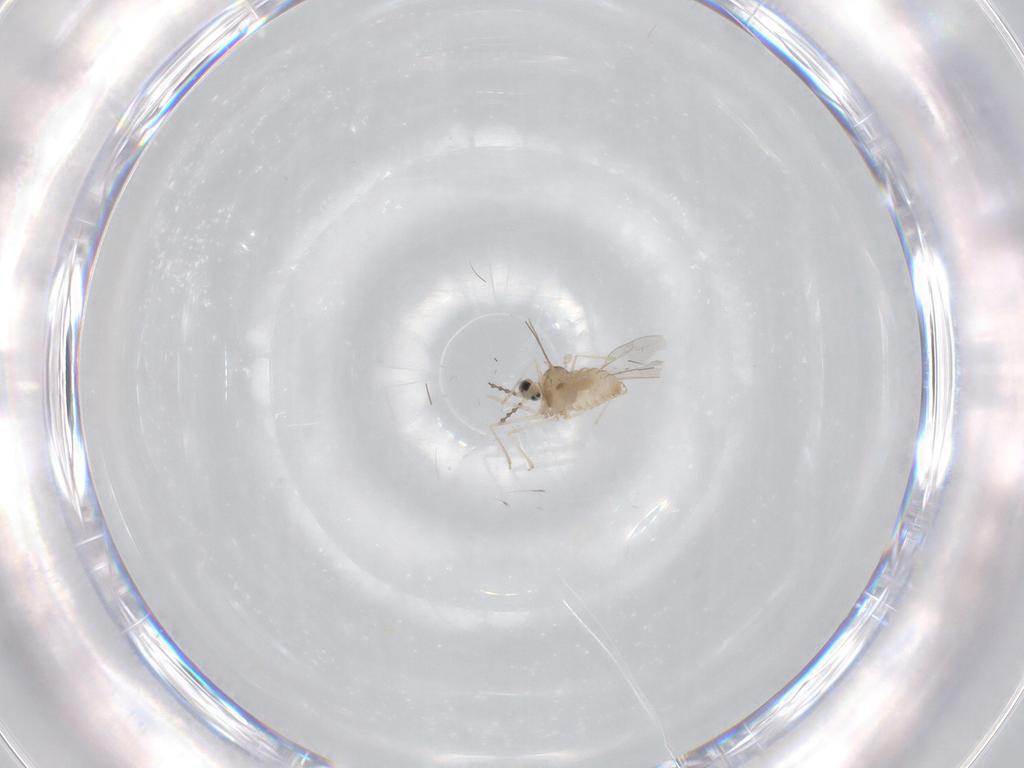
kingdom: Animalia
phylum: Arthropoda
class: Insecta
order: Diptera
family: Cecidomyiidae
